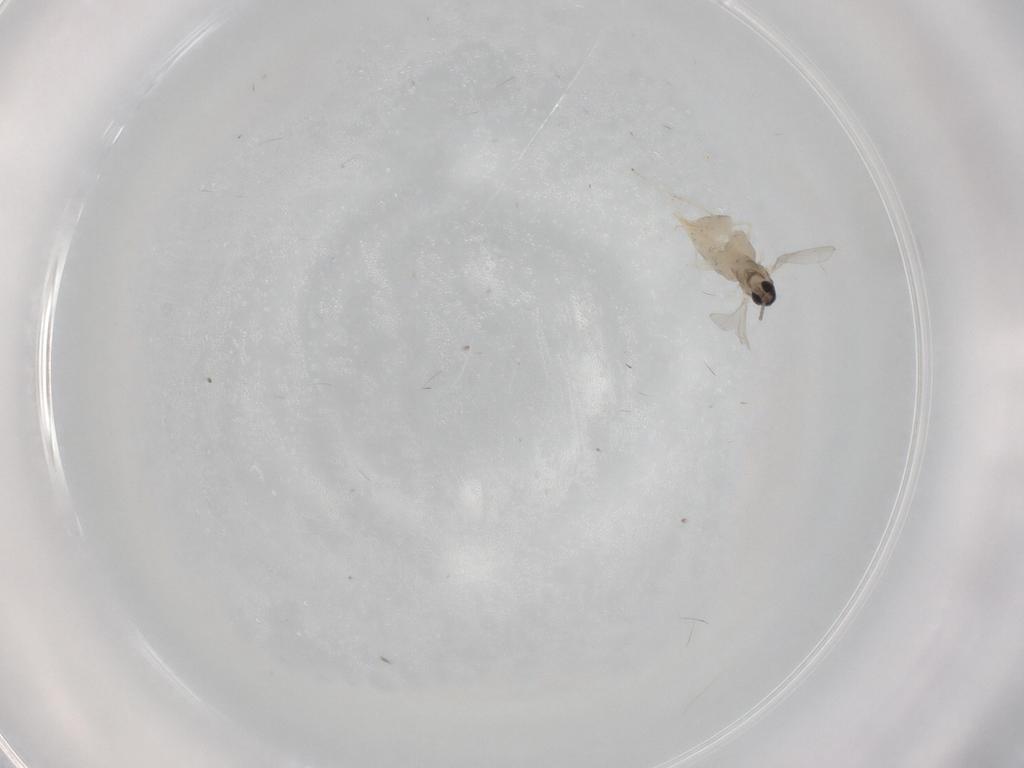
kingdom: Animalia
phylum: Arthropoda
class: Insecta
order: Diptera
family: Cecidomyiidae
